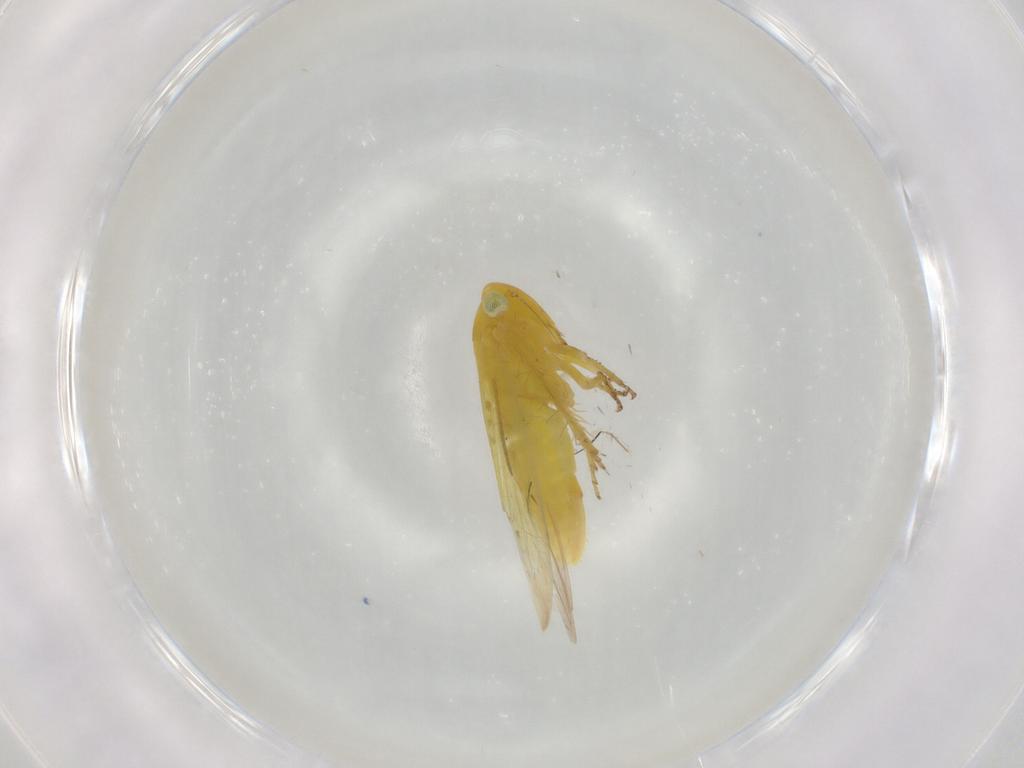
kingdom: Animalia
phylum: Arthropoda
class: Insecta
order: Hemiptera
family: Cicadellidae
